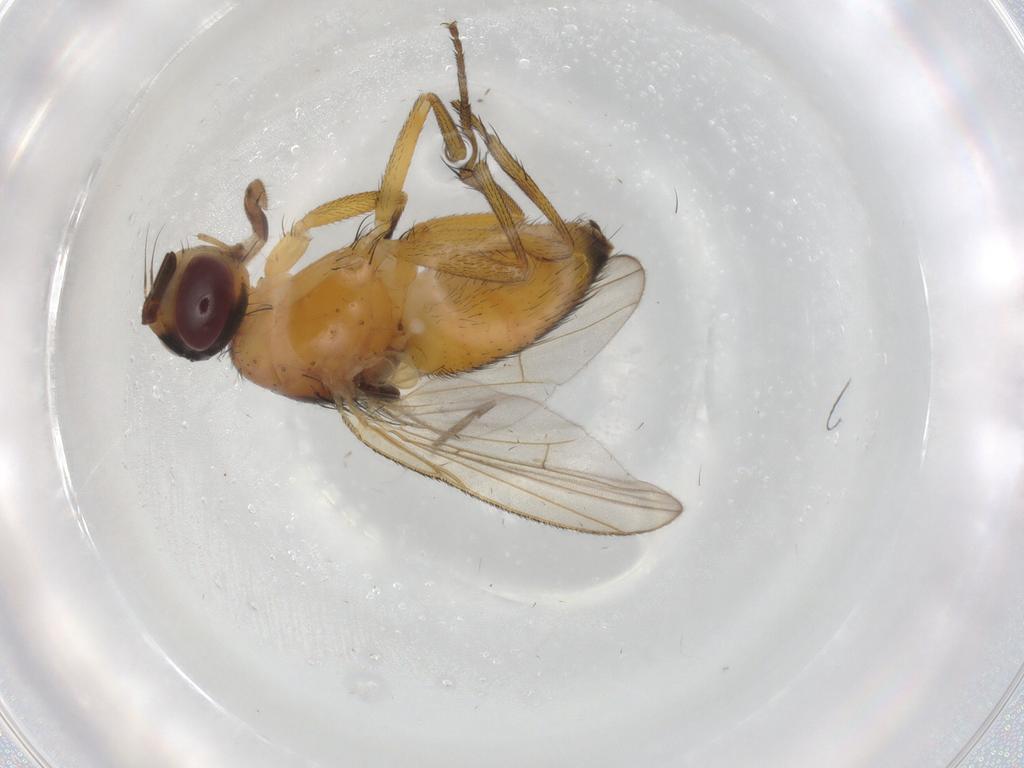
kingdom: Animalia
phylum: Arthropoda
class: Insecta
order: Diptera
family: Muscidae
